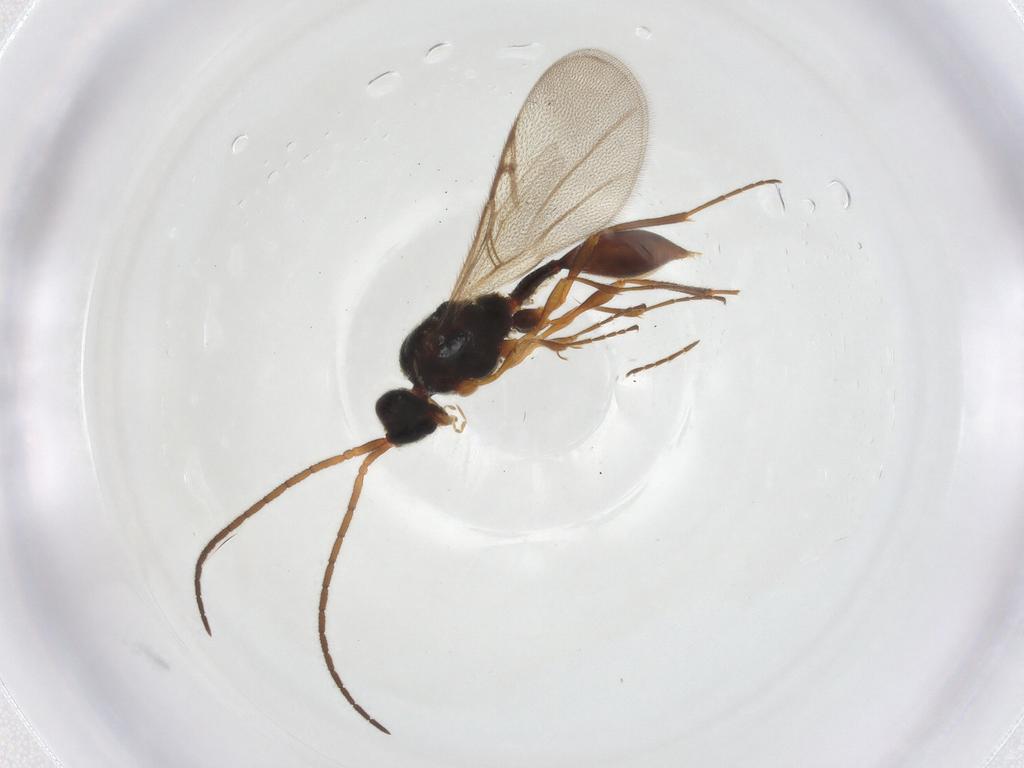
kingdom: Animalia
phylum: Arthropoda
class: Insecta
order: Hymenoptera
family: Diapriidae
